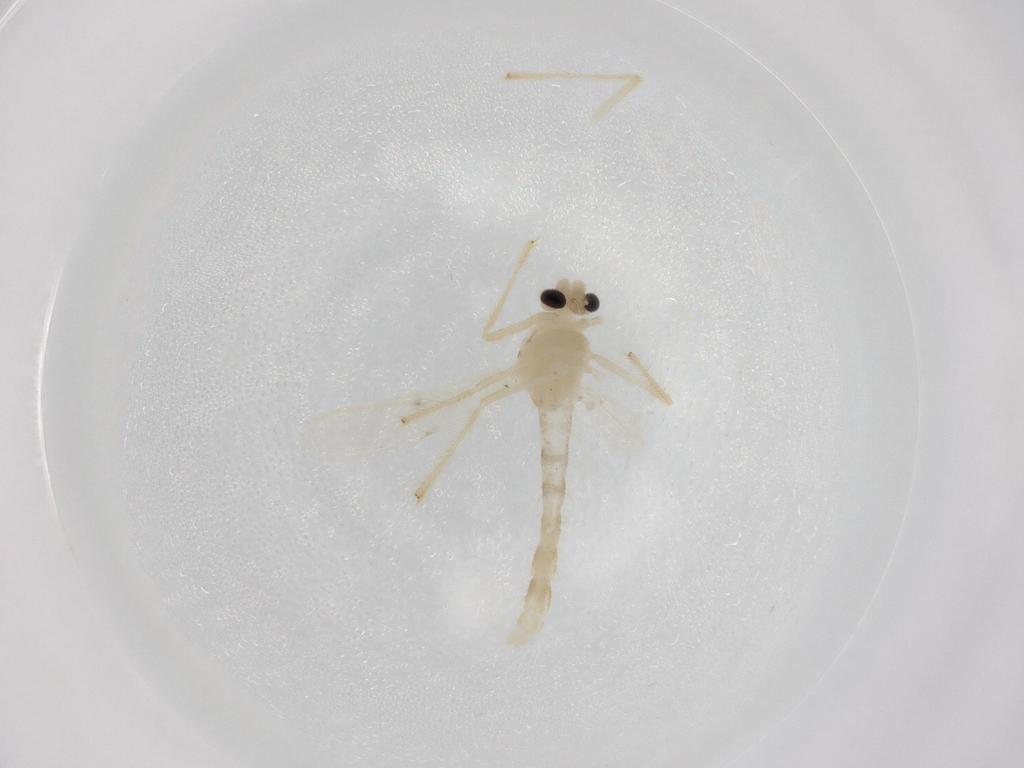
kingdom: Animalia
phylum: Arthropoda
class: Insecta
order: Diptera
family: Chironomidae
